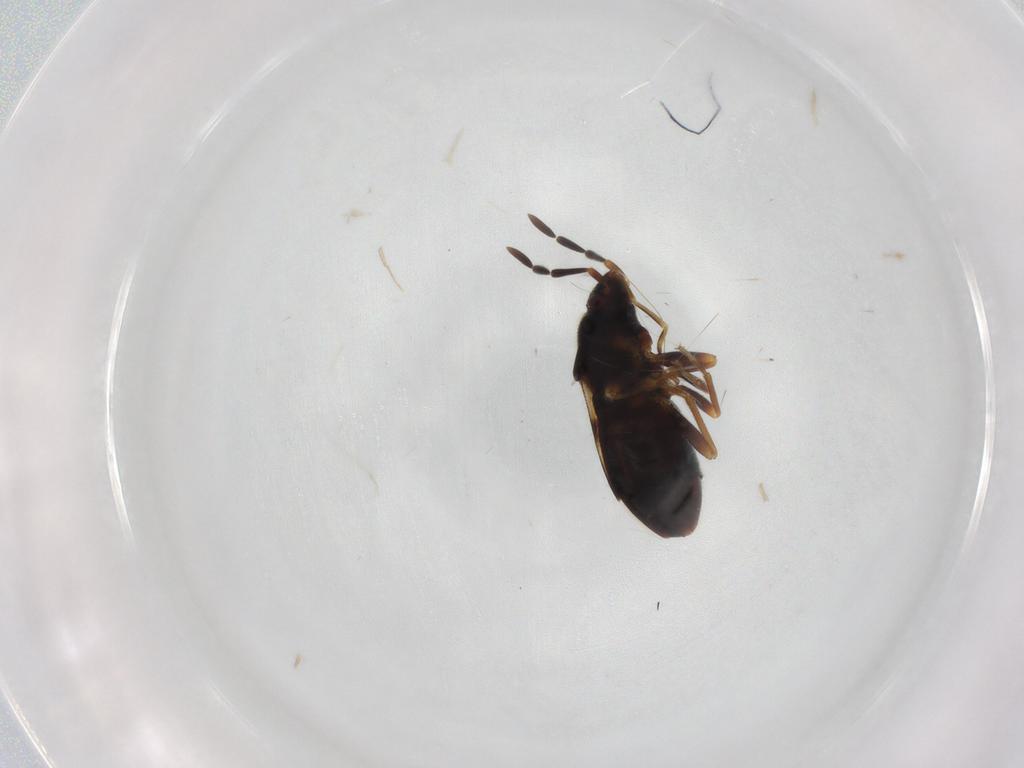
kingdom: Animalia
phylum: Arthropoda
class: Insecta
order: Hemiptera
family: Rhyparochromidae
